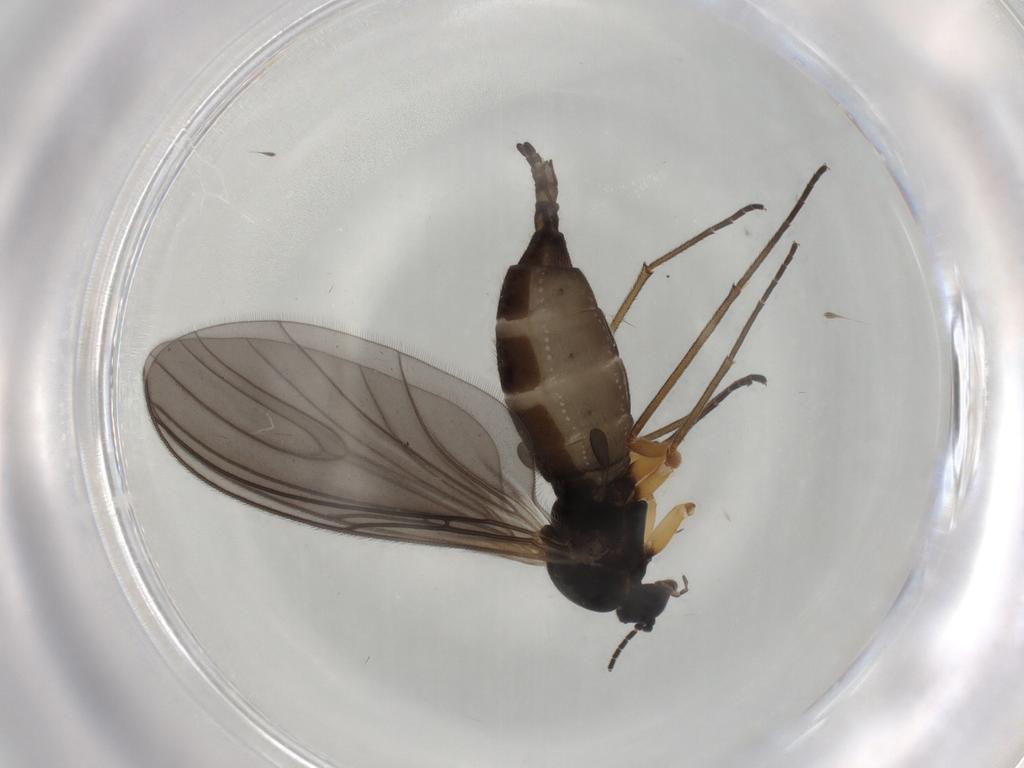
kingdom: Animalia
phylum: Arthropoda
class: Insecta
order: Diptera
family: Sciaridae
